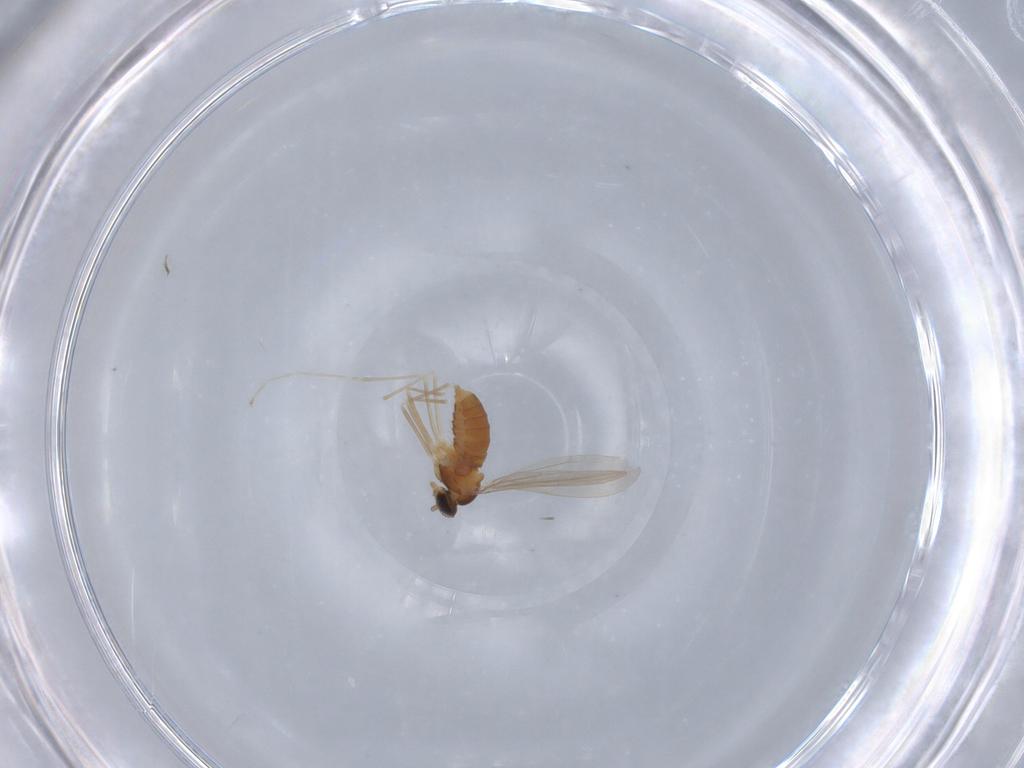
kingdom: Animalia
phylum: Arthropoda
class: Insecta
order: Diptera
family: Cecidomyiidae
